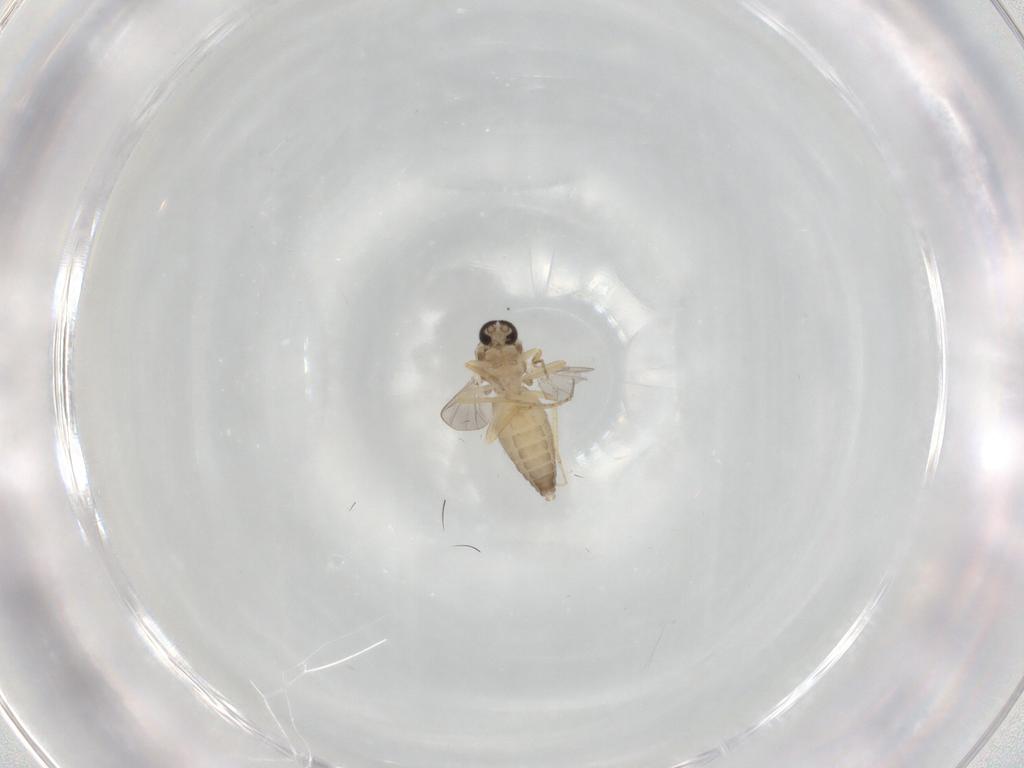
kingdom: Animalia
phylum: Arthropoda
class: Insecta
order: Diptera
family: Ceratopogonidae
